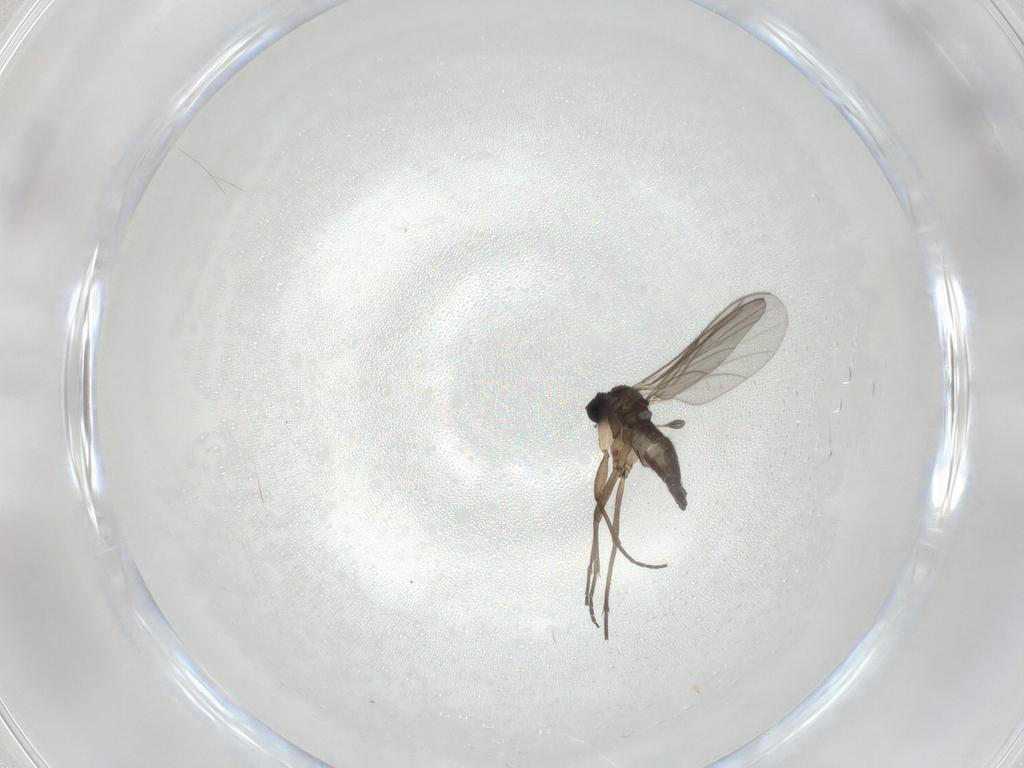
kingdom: Animalia
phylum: Arthropoda
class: Insecta
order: Diptera
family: Sciaridae
